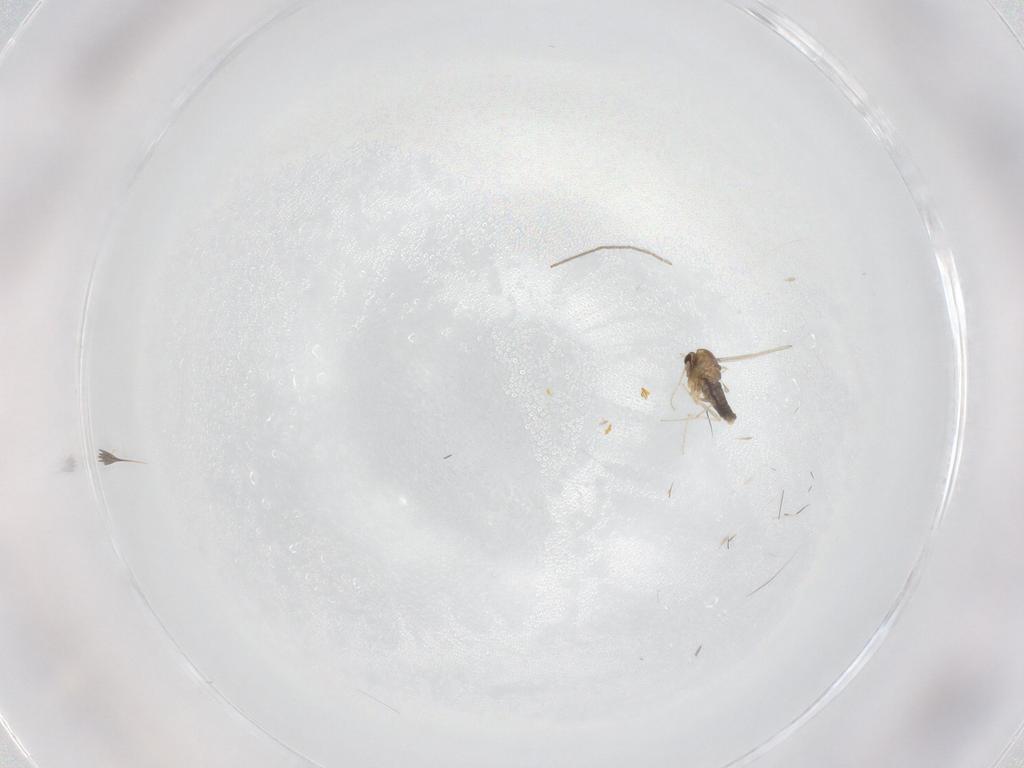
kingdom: Animalia
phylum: Arthropoda
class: Insecta
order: Diptera
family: Chironomidae
